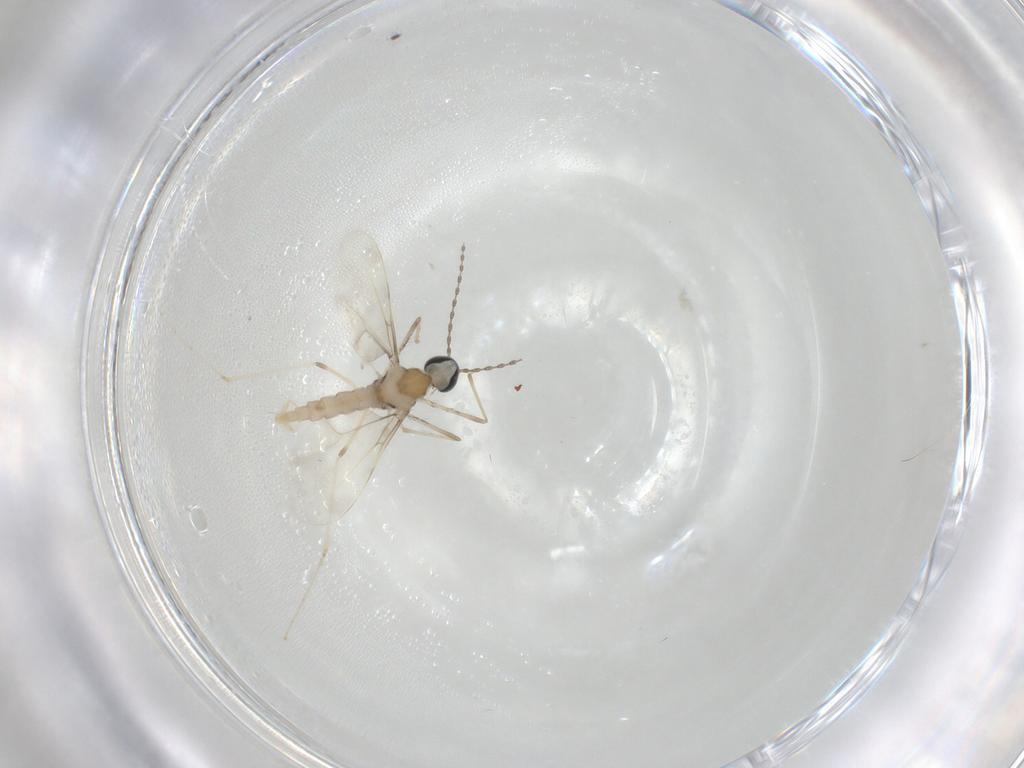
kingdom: Animalia
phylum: Arthropoda
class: Insecta
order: Diptera
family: Cecidomyiidae
